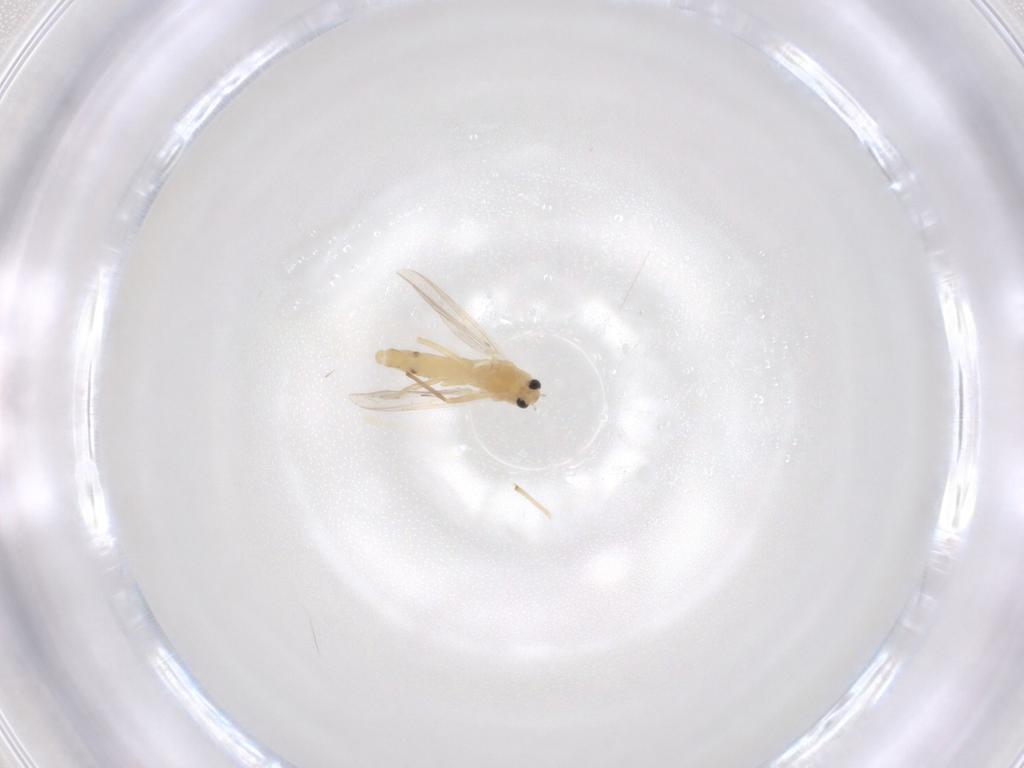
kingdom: Animalia
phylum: Arthropoda
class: Insecta
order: Diptera
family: Chironomidae
